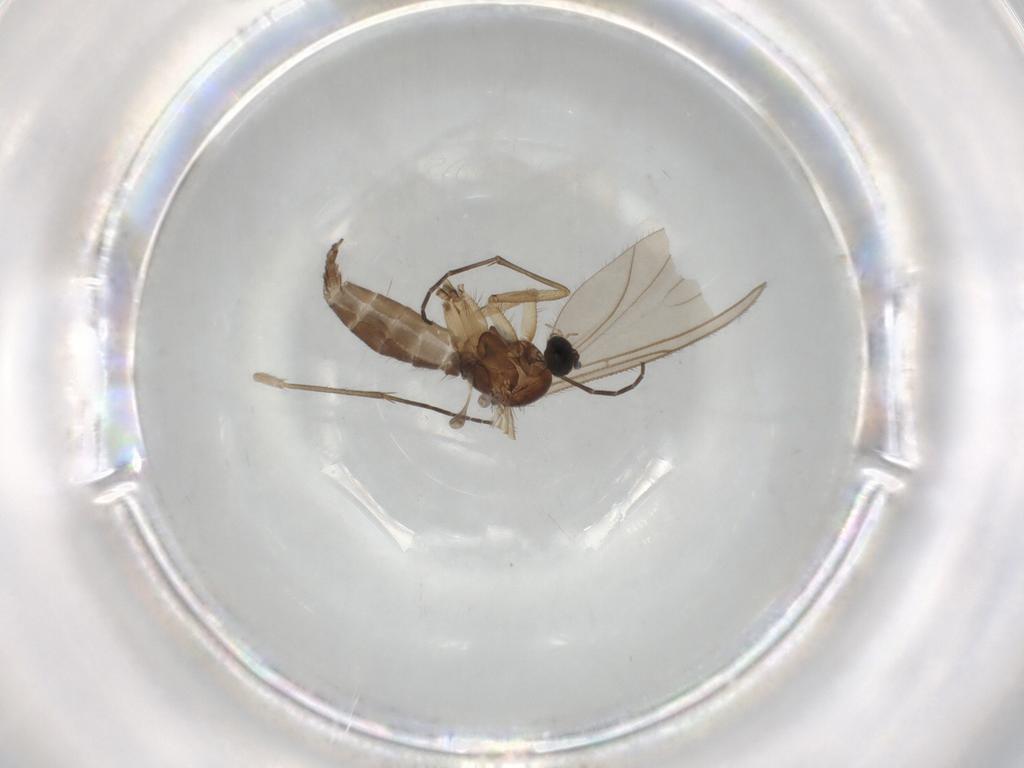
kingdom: Animalia
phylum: Arthropoda
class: Insecta
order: Diptera
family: Sciaridae
